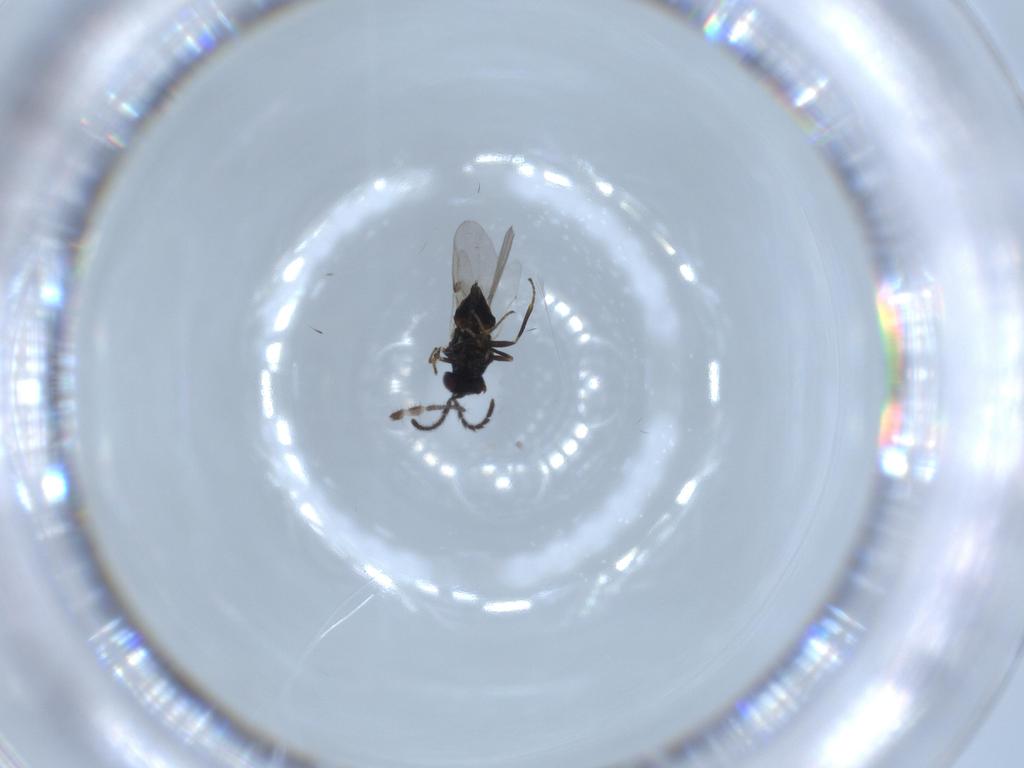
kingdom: Animalia
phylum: Arthropoda
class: Insecta
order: Hymenoptera
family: Encyrtidae
